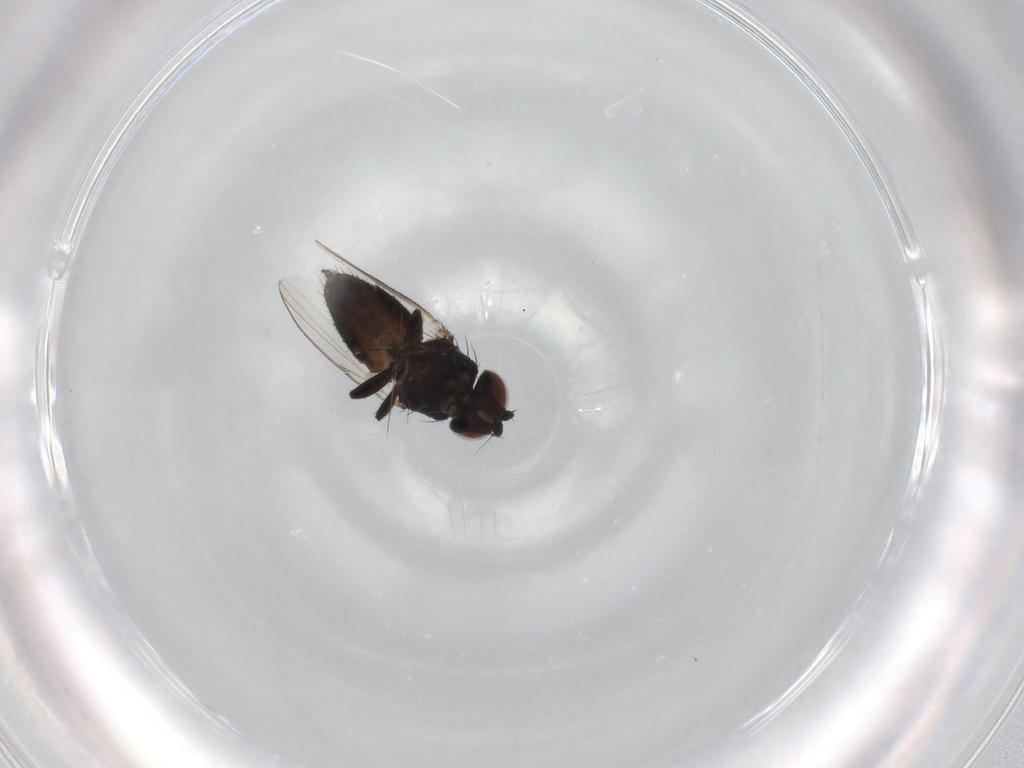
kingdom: Animalia
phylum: Arthropoda
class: Insecta
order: Diptera
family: Milichiidae
